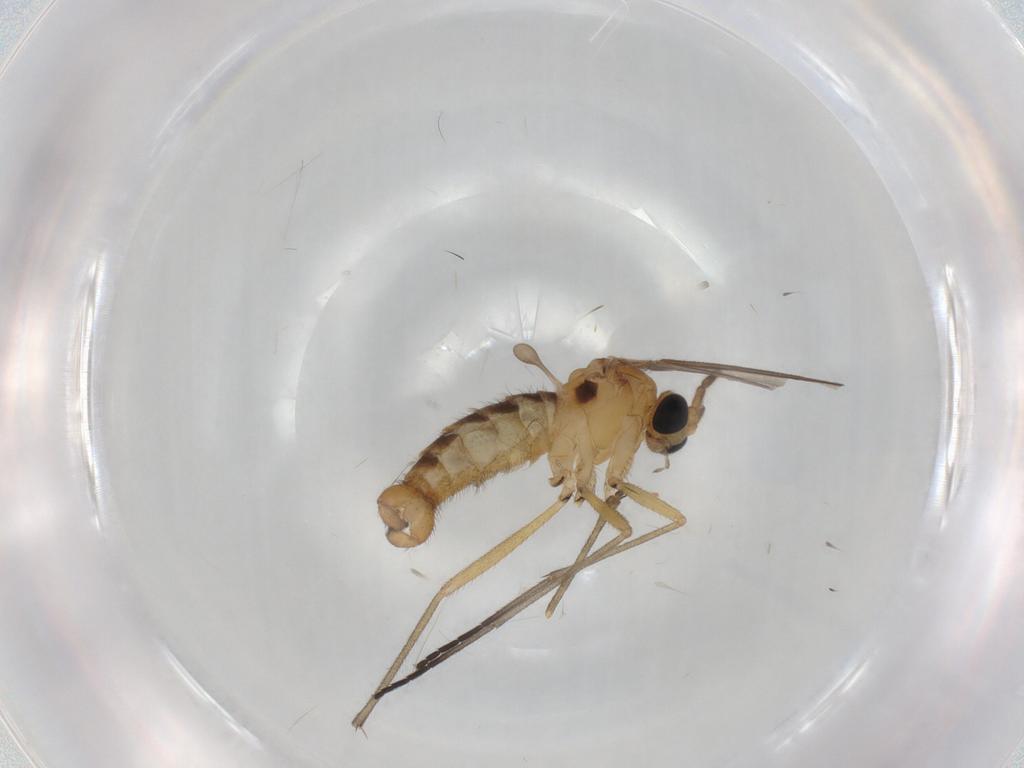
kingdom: Animalia
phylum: Arthropoda
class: Insecta
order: Diptera
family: Sciaridae
